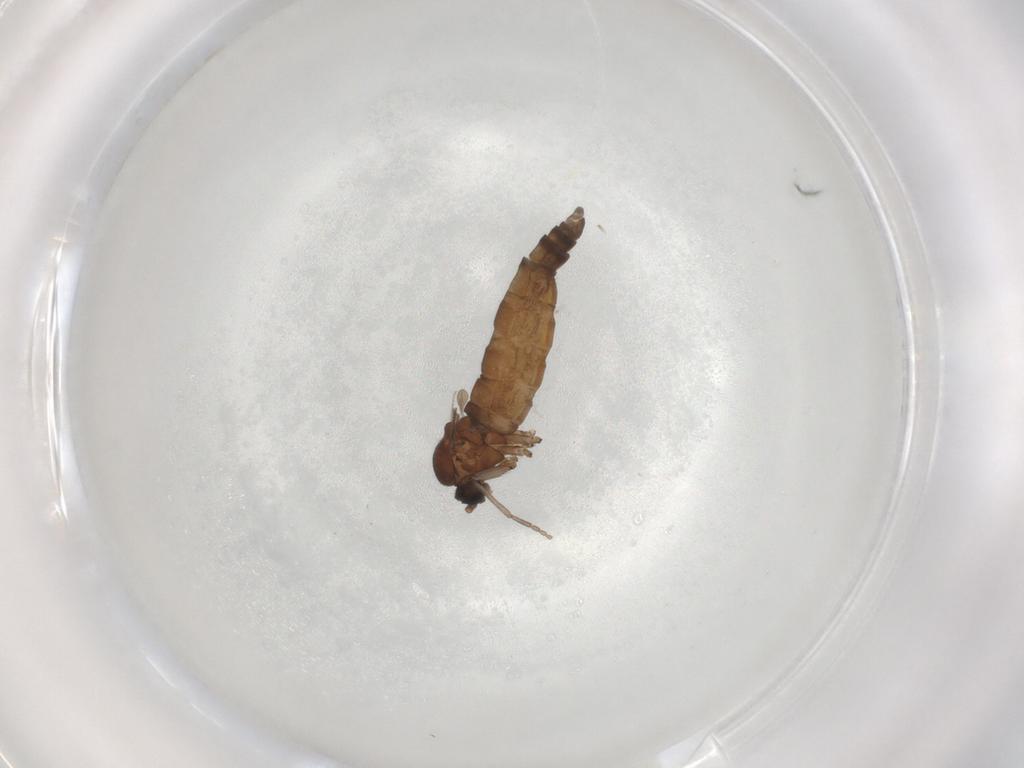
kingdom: Animalia
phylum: Arthropoda
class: Insecta
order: Diptera
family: Sciaridae
